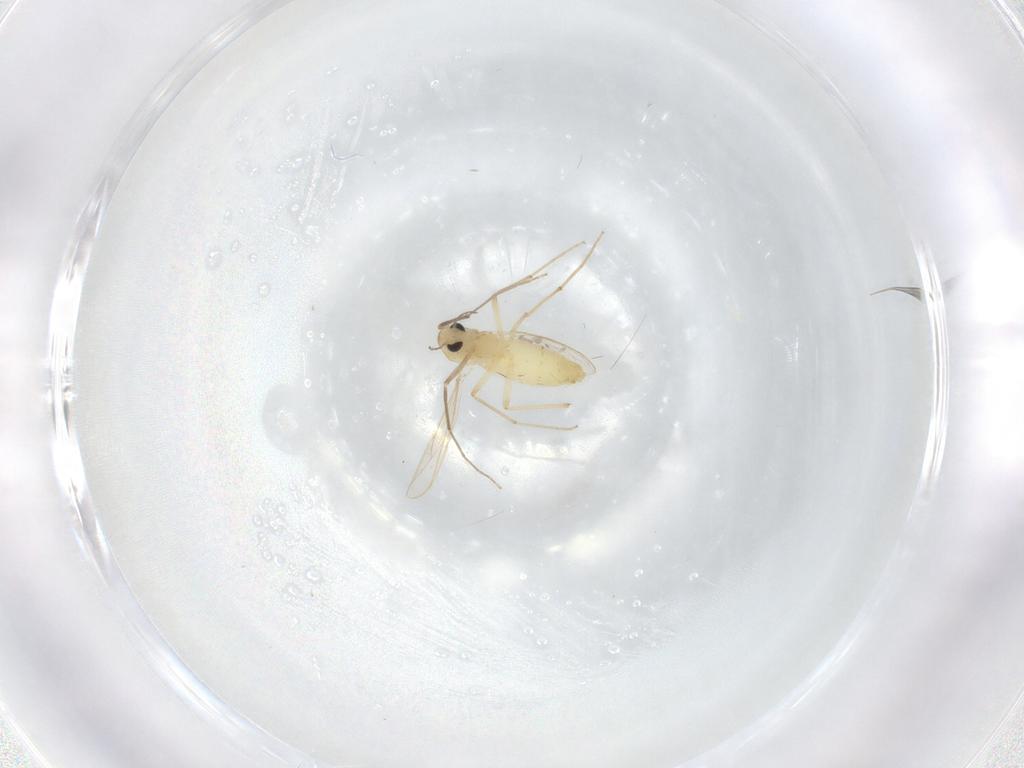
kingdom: Animalia
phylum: Arthropoda
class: Insecta
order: Diptera
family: Chironomidae
